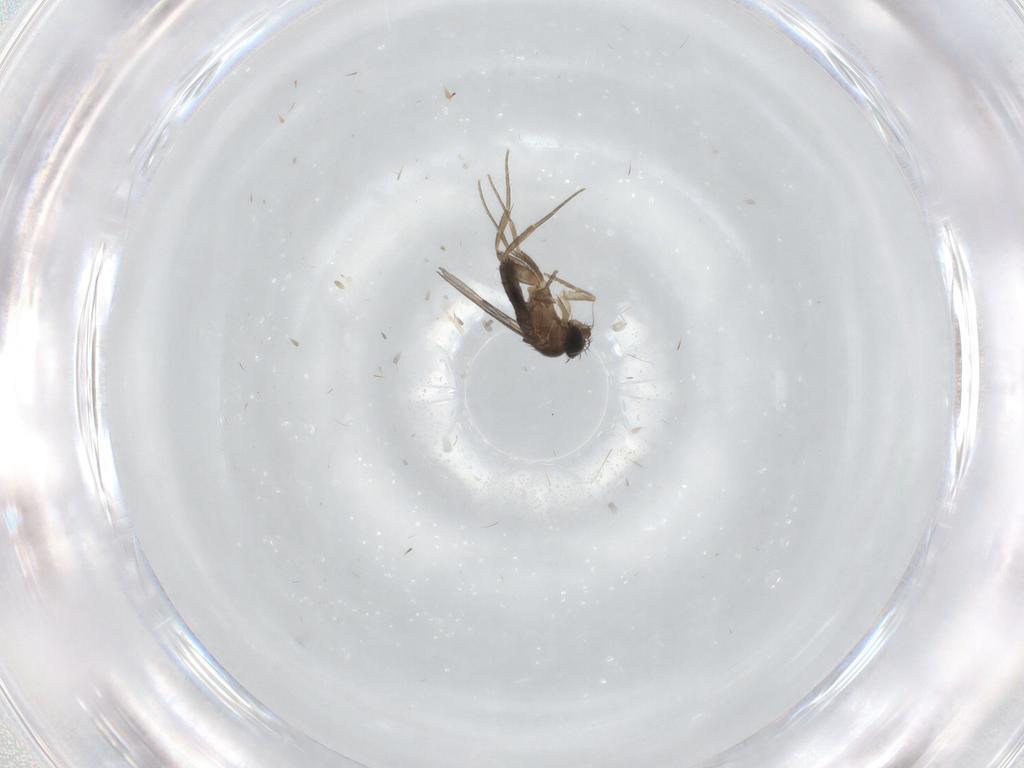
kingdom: Animalia
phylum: Arthropoda
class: Insecta
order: Diptera
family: Phoridae
